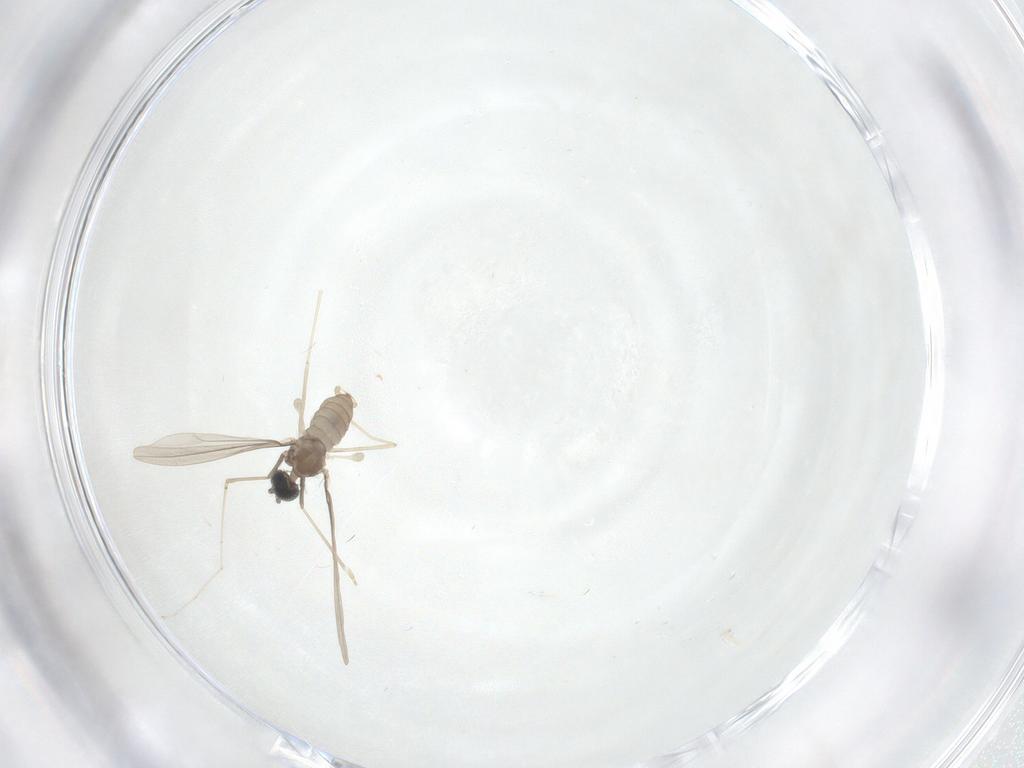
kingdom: Animalia
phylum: Arthropoda
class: Insecta
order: Diptera
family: Cecidomyiidae
